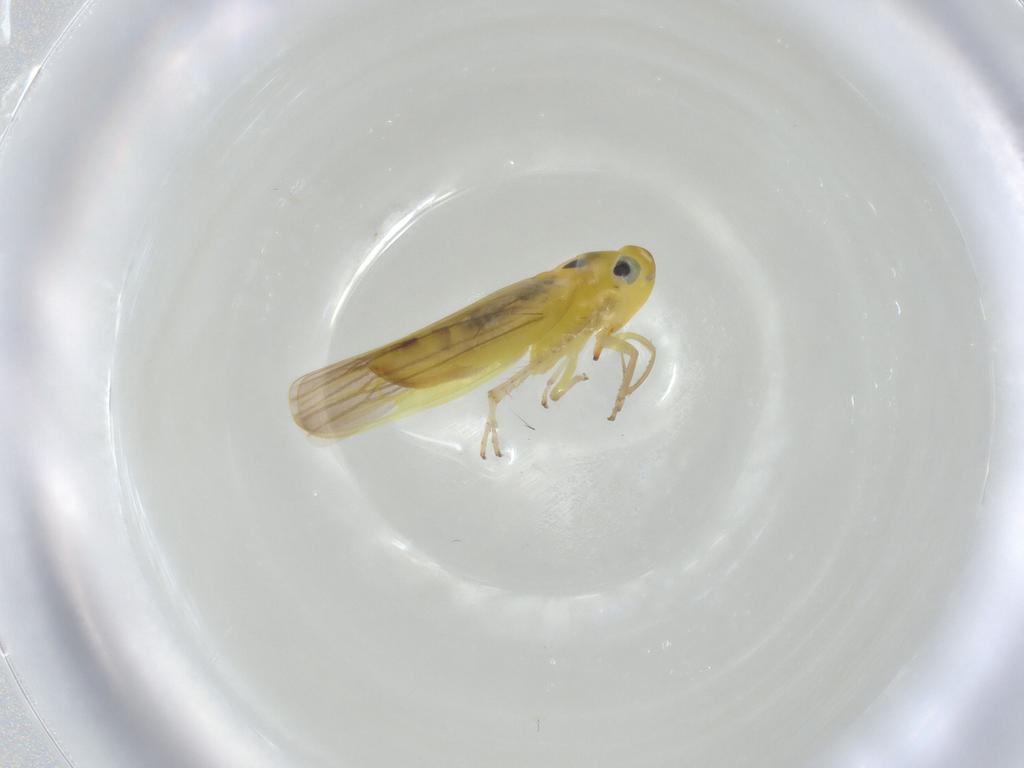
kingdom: Animalia
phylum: Arthropoda
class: Insecta
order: Hemiptera
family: Cicadellidae
